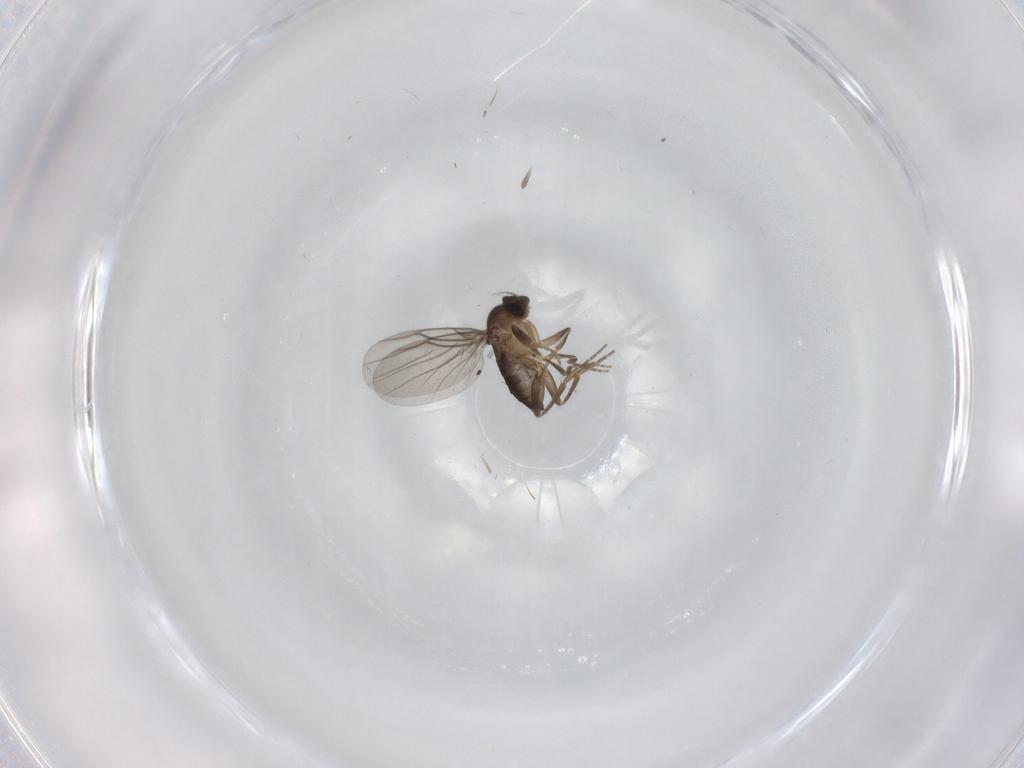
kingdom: Animalia
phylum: Arthropoda
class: Insecta
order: Diptera
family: Phoridae
